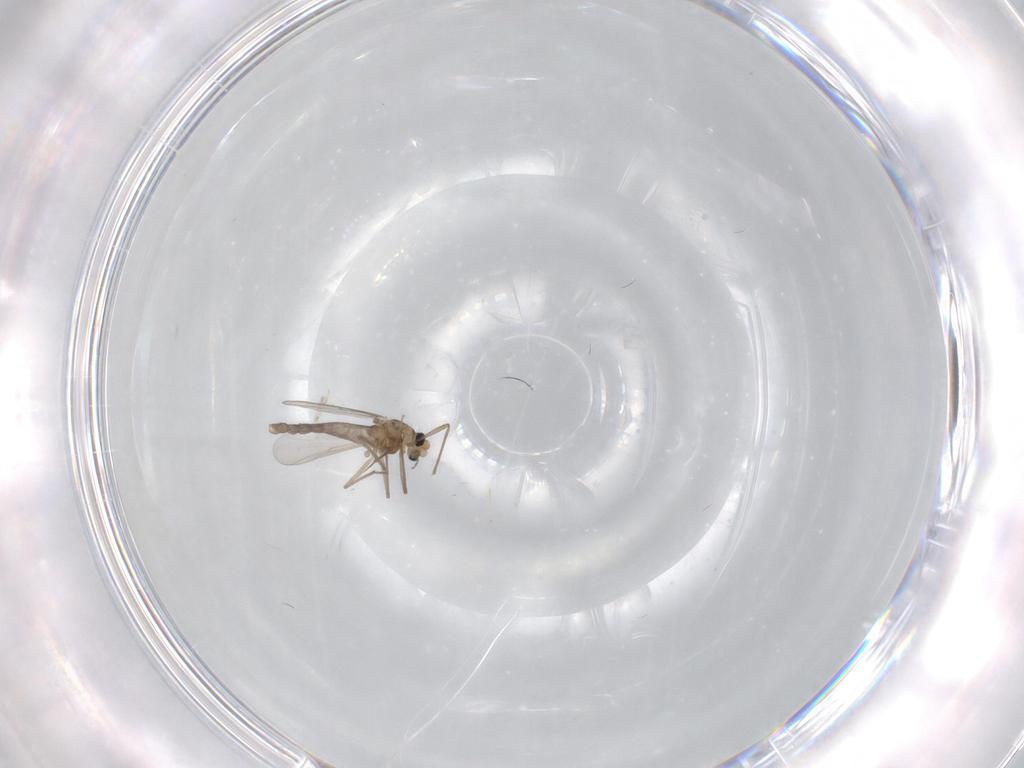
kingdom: Animalia
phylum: Arthropoda
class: Insecta
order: Diptera
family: Chironomidae
